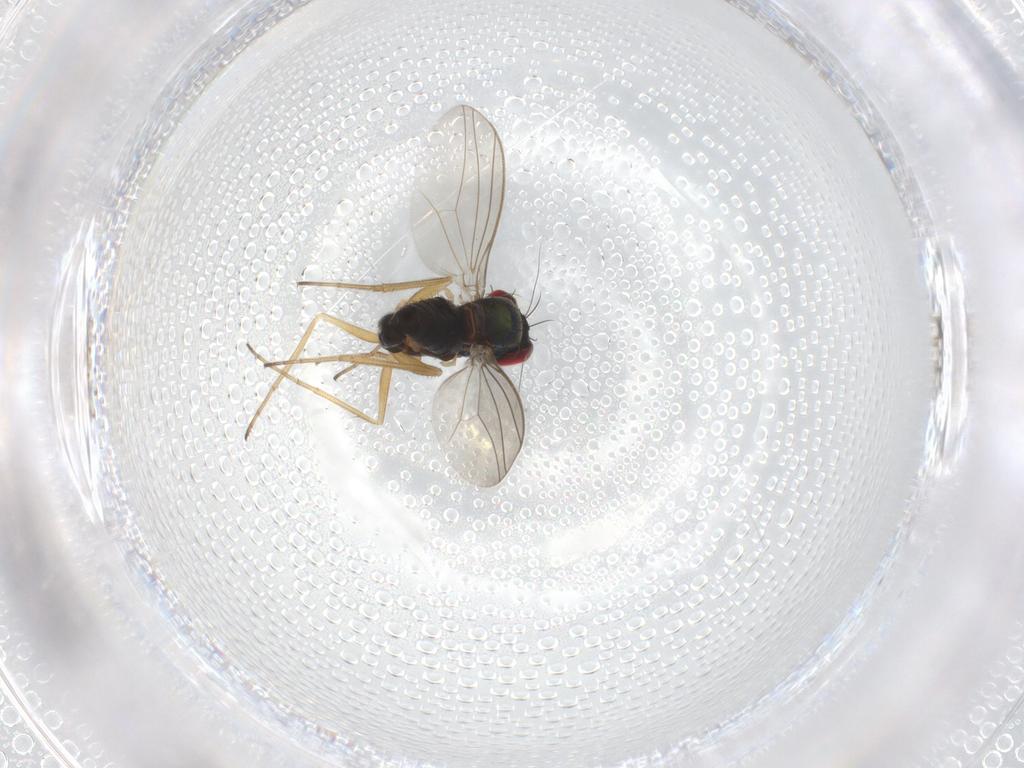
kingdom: Animalia
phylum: Arthropoda
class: Insecta
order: Diptera
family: Dolichopodidae
